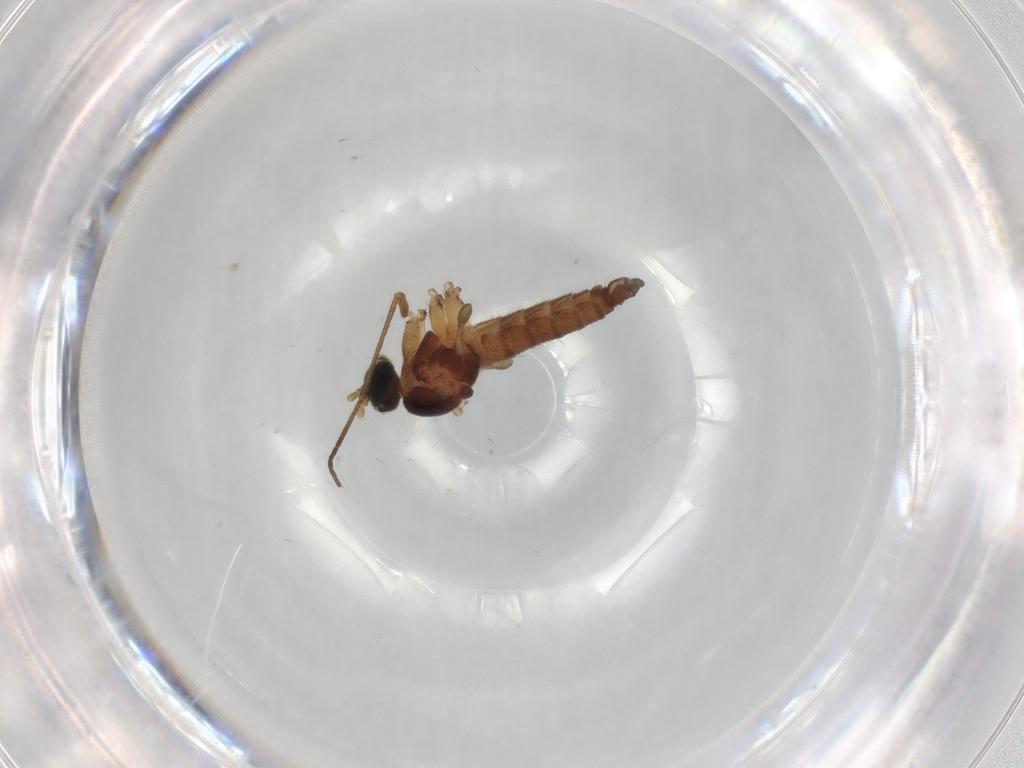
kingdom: Animalia
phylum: Arthropoda
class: Insecta
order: Diptera
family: Sciaridae
